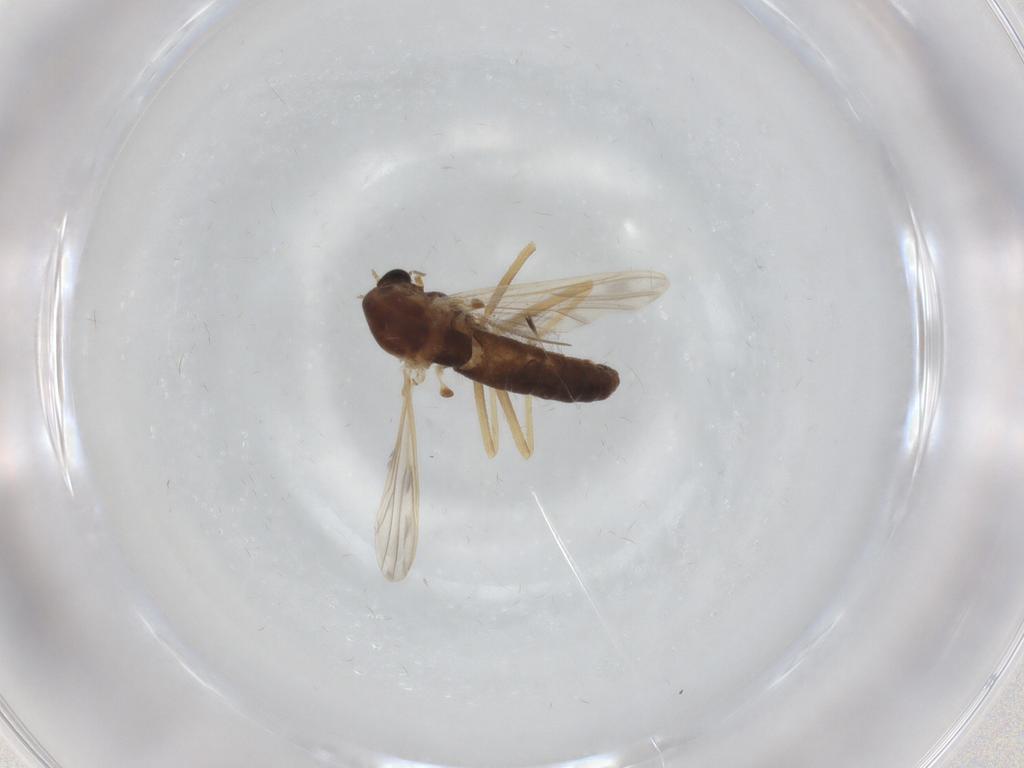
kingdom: Animalia
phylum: Arthropoda
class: Insecta
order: Diptera
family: Chironomidae
